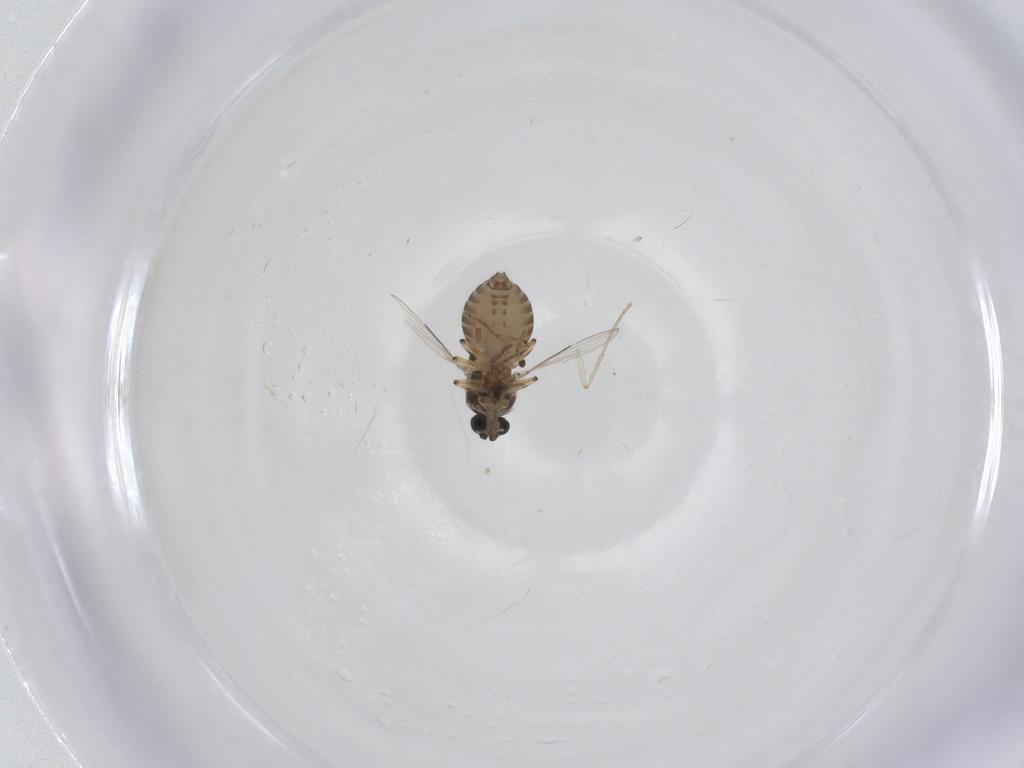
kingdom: Animalia
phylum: Arthropoda
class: Insecta
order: Diptera
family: Ceratopogonidae
